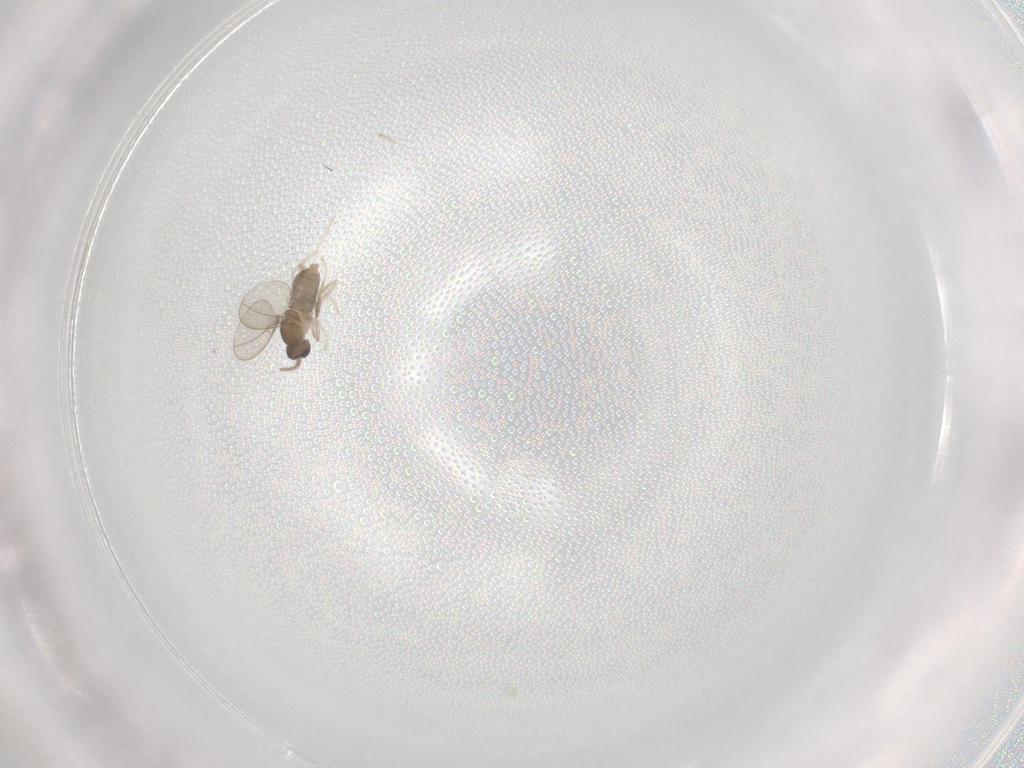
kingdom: Animalia
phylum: Arthropoda
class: Insecta
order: Diptera
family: Cecidomyiidae
